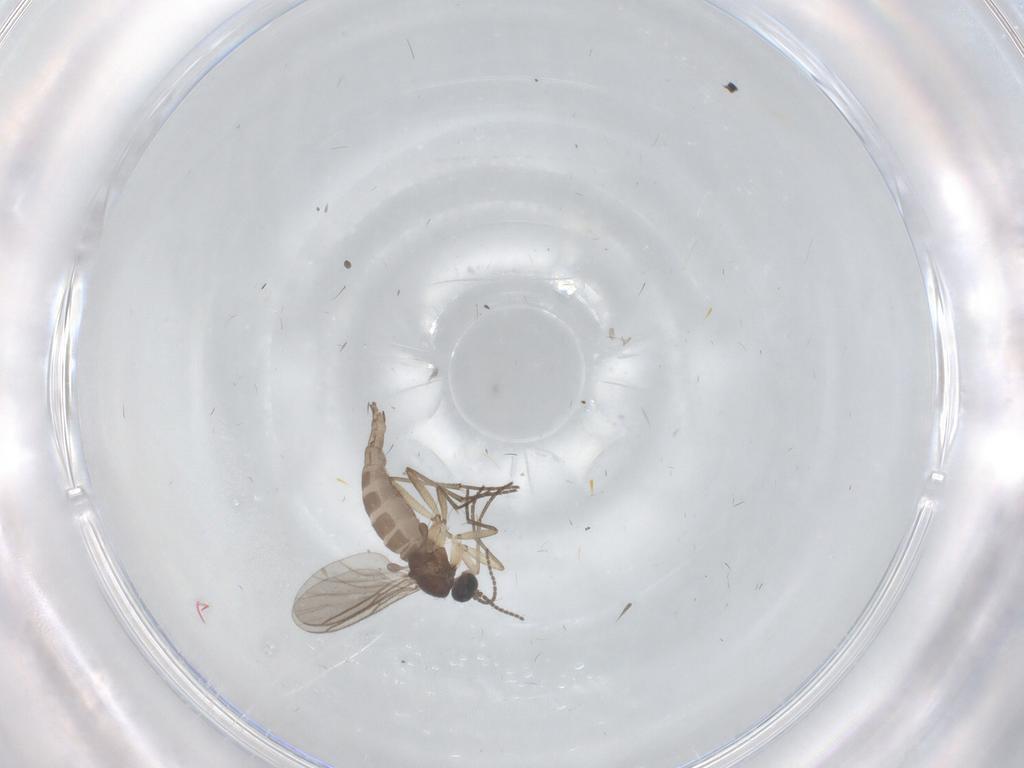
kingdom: Animalia
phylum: Arthropoda
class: Insecta
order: Diptera
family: Sciaridae
